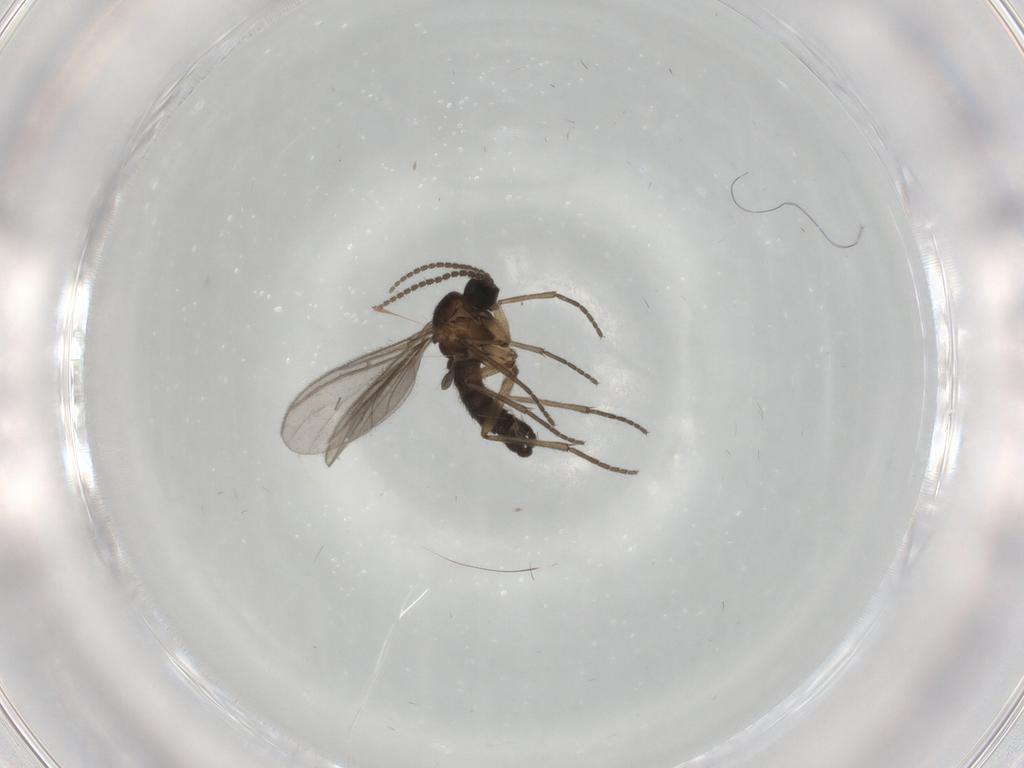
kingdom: Animalia
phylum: Arthropoda
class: Insecta
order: Diptera
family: Sciaridae
